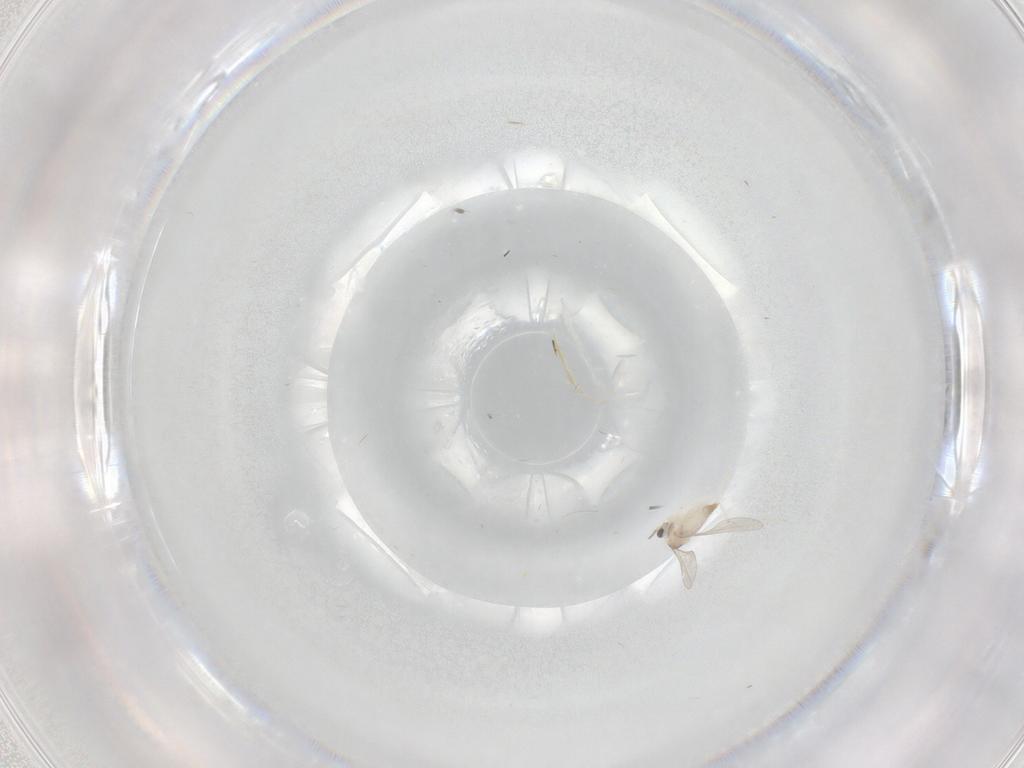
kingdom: Animalia
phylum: Arthropoda
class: Insecta
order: Diptera
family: Cecidomyiidae
